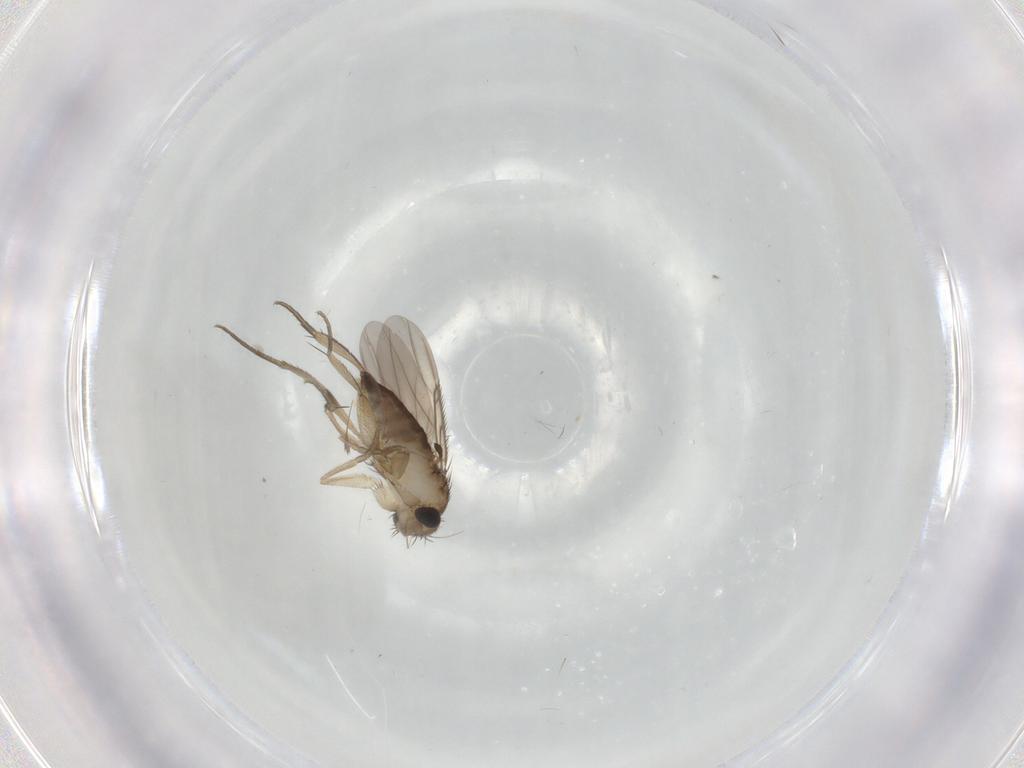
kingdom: Animalia
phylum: Arthropoda
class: Insecta
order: Diptera
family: Phoridae
